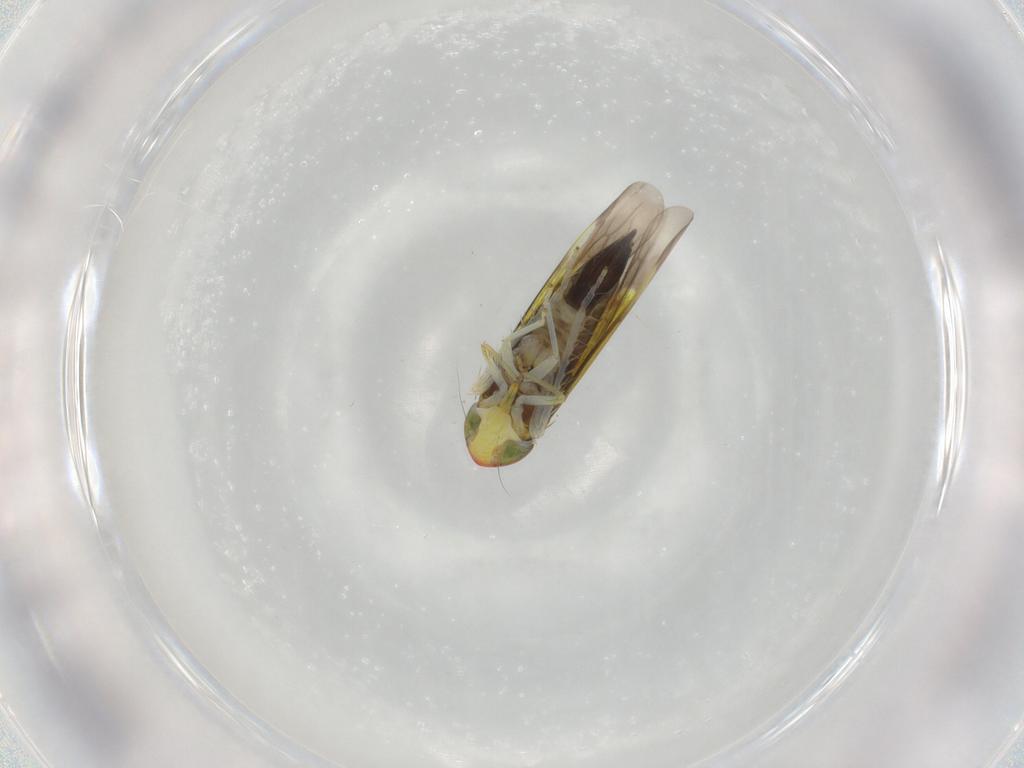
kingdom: Animalia
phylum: Arthropoda
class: Insecta
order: Hemiptera
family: Cicadellidae
